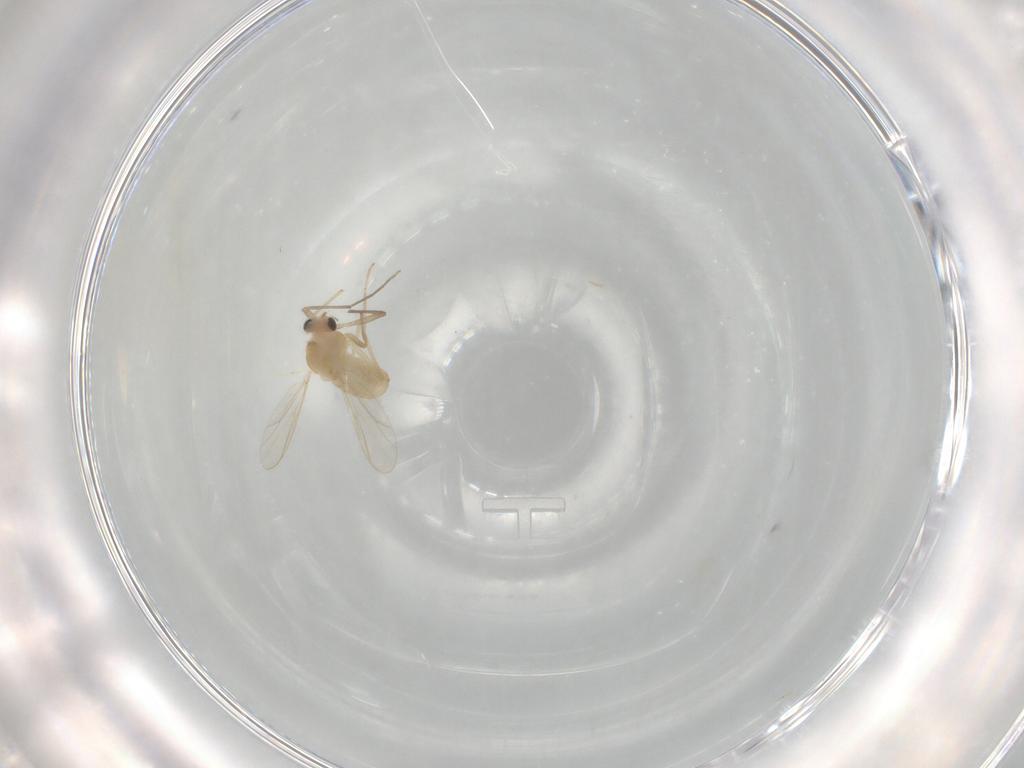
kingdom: Animalia
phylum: Arthropoda
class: Insecta
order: Diptera
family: Chironomidae
